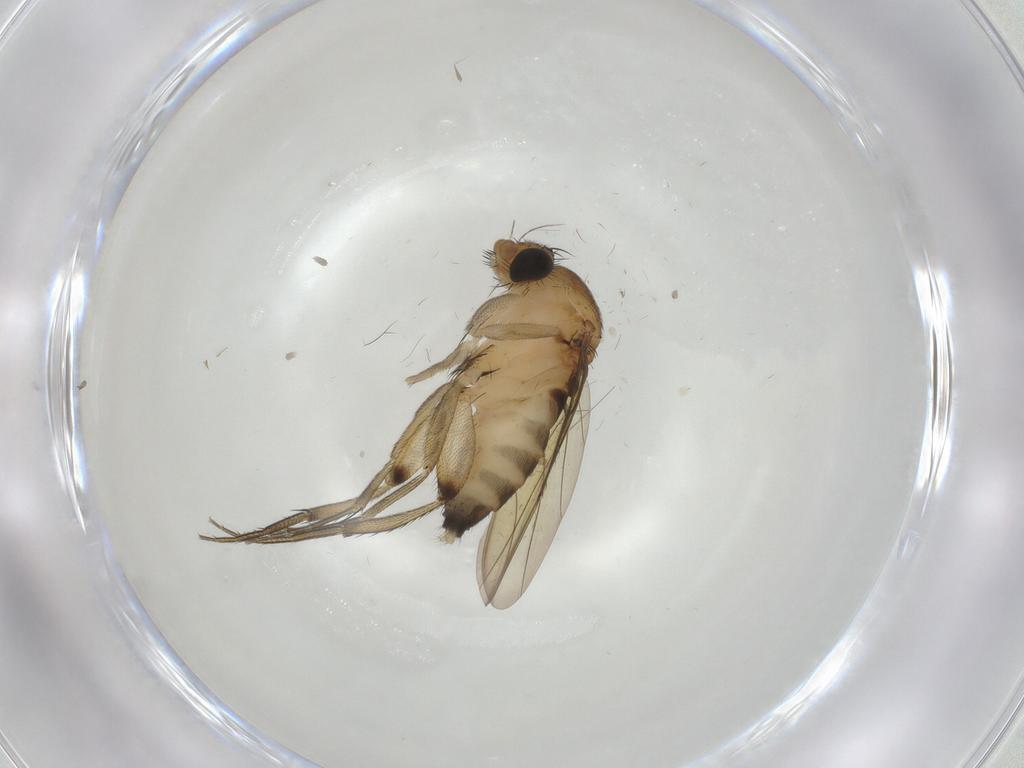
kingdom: Animalia
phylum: Arthropoda
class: Insecta
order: Diptera
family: Phoridae
